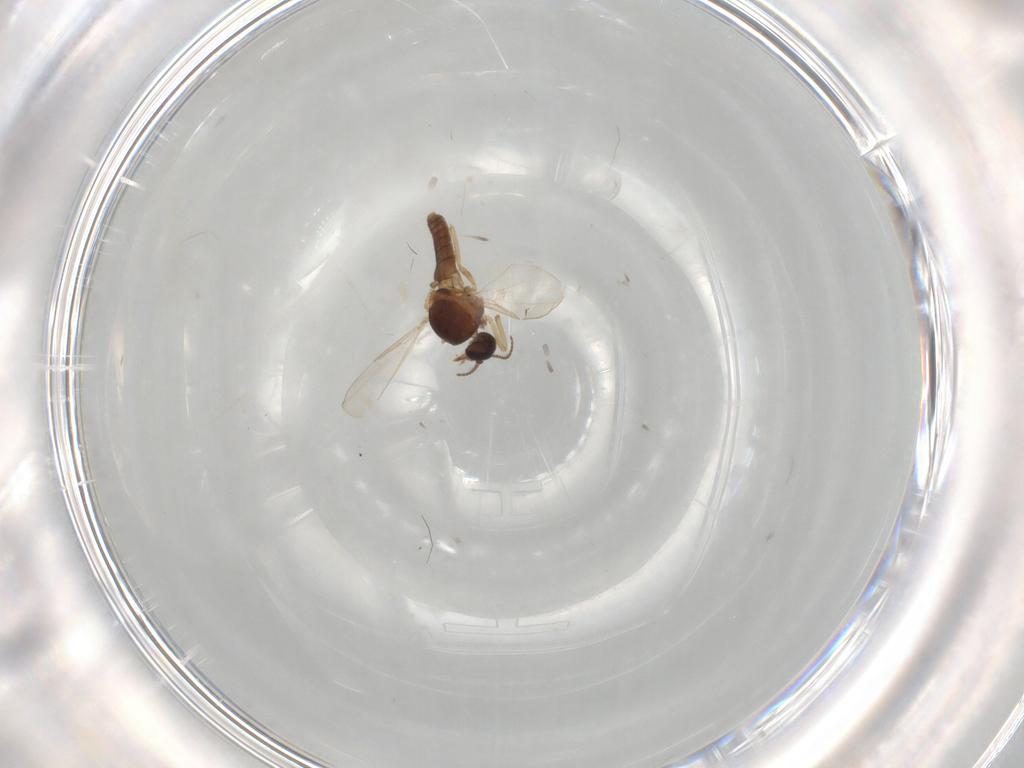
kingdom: Animalia
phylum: Arthropoda
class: Insecta
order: Diptera
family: Ceratopogonidae
